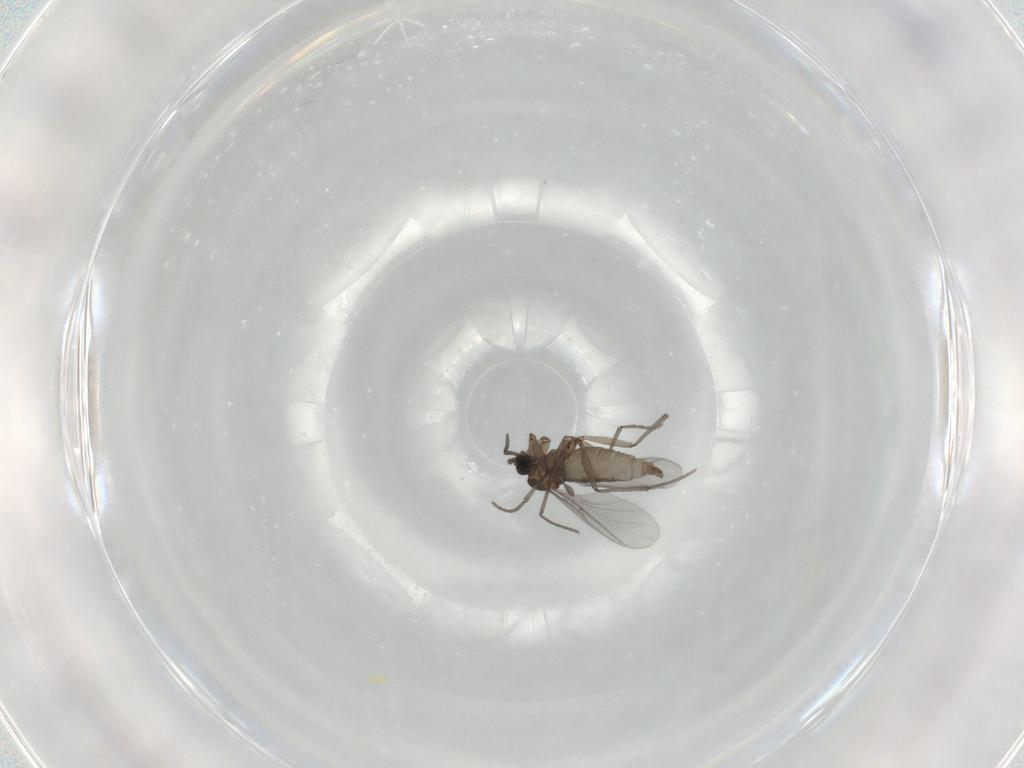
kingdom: Animalia
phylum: Arthropoda
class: Insecta
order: Diptera
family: Sciaridae
